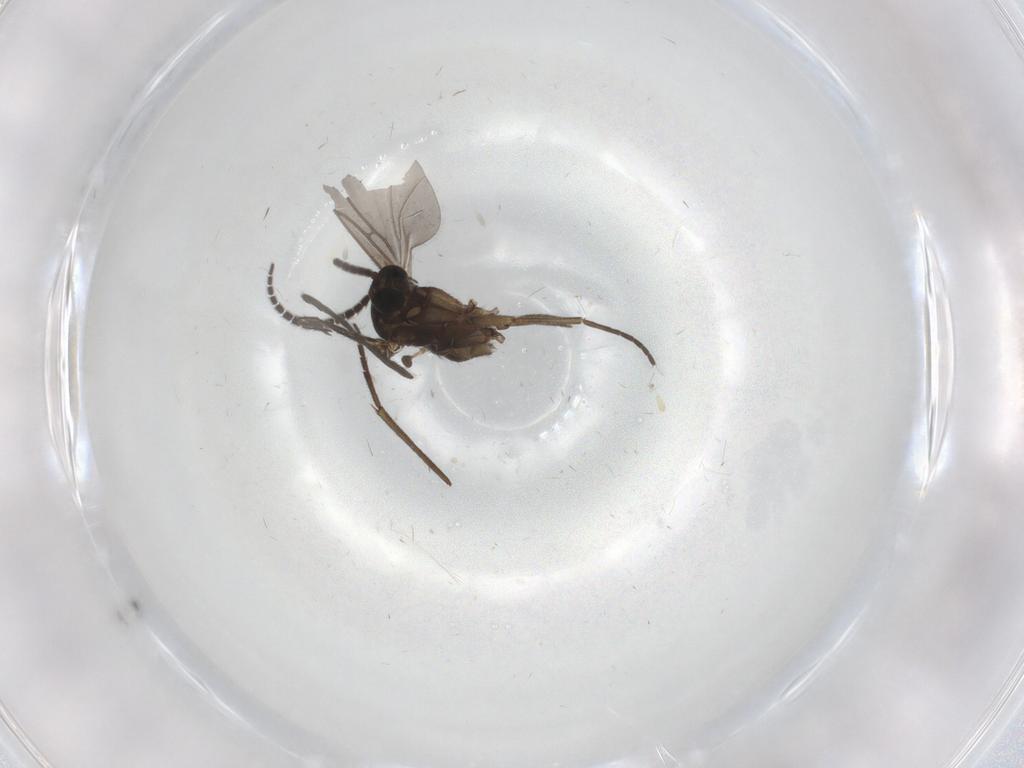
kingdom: Animalia
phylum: Arthropoda
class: Insecta
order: Diptera
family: Sciaridae
